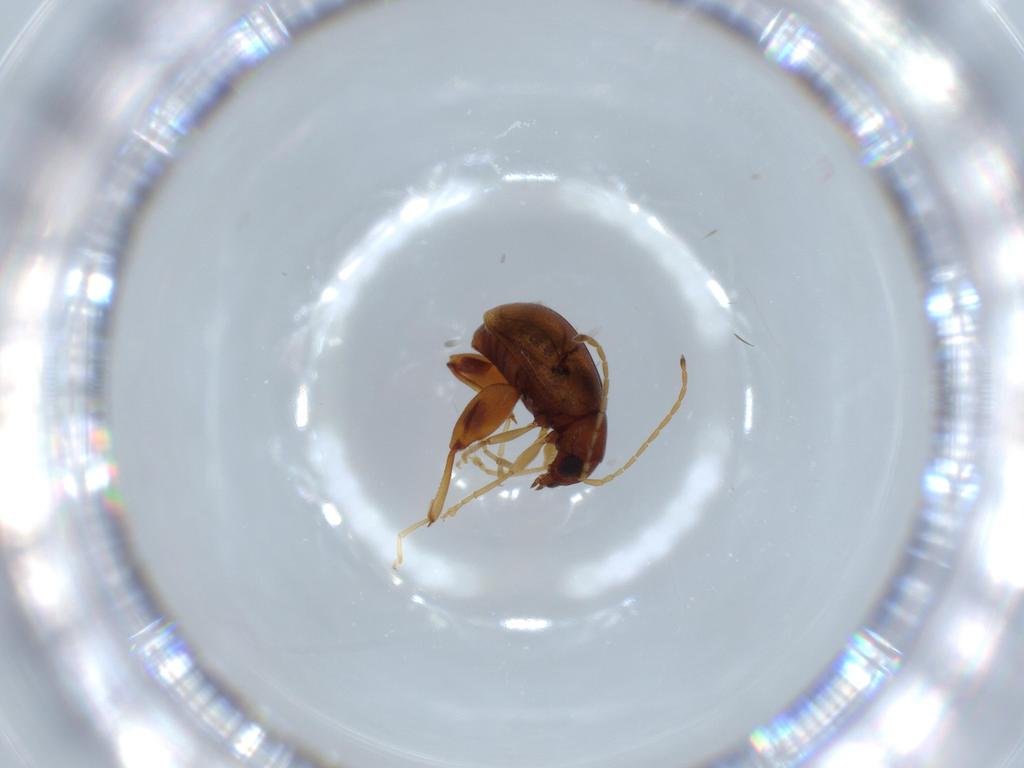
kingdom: Animalia
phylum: Arthropoda
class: Insecta
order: Coleoptera
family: Chrysomelidae
